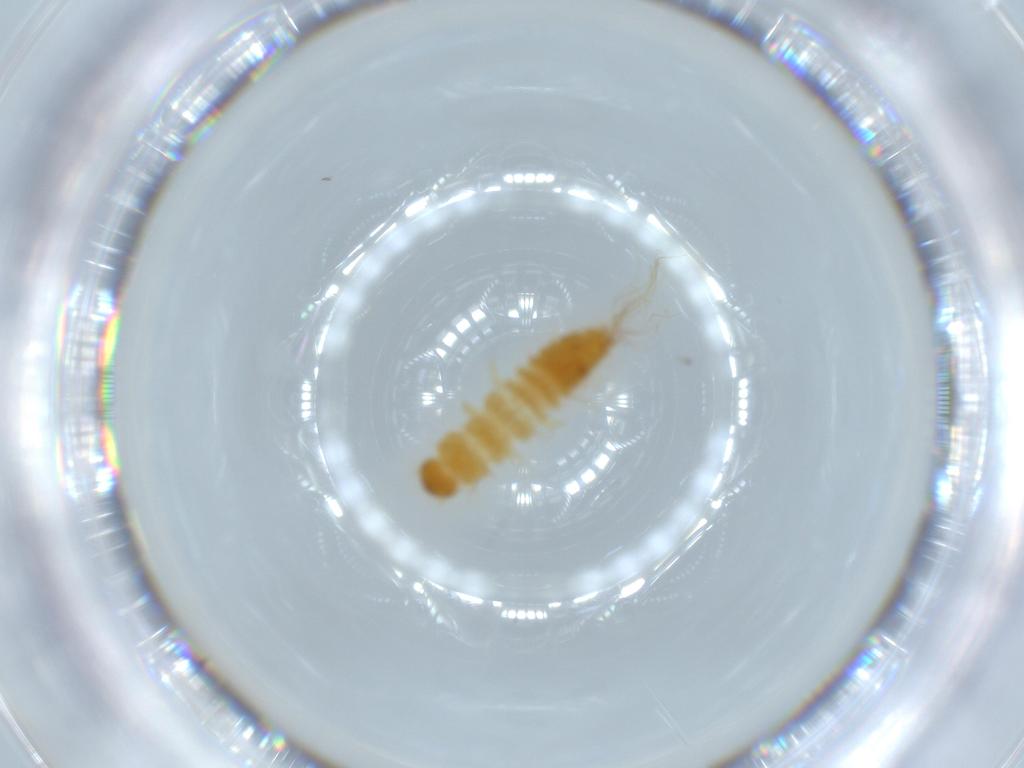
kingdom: Animalia
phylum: Arthropoda
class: Insecta
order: Coleoptera
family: Dermestidae
